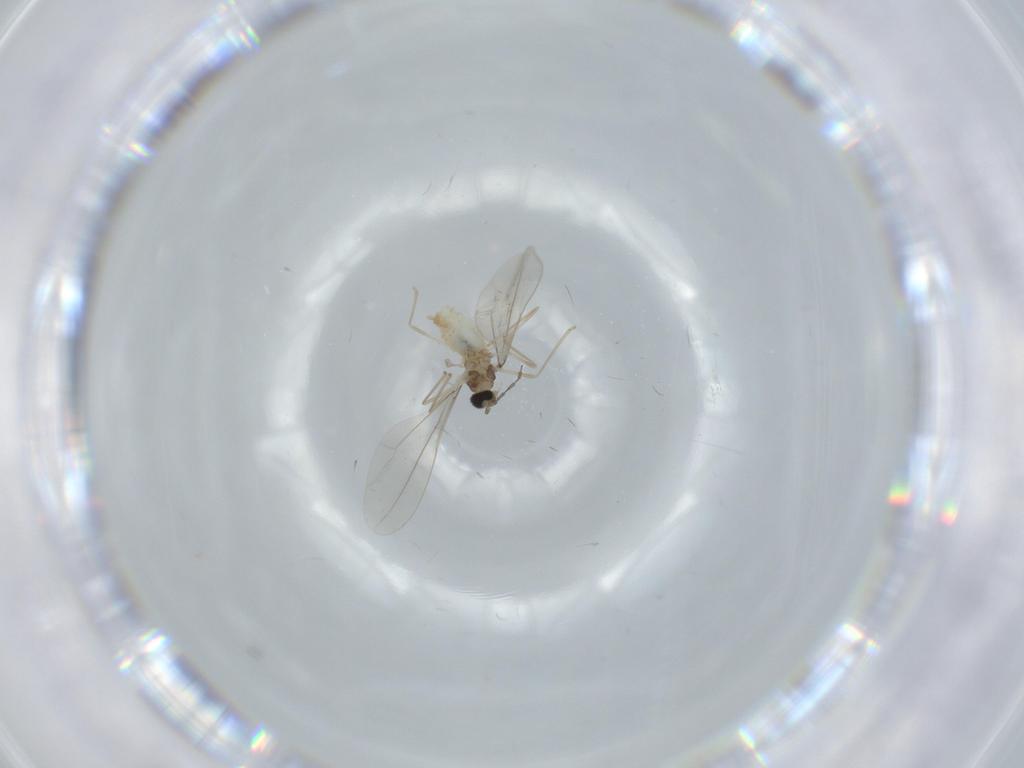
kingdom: Animalia
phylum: Arthropoda
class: Insecta
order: Diptera
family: Cecidomyiidae
